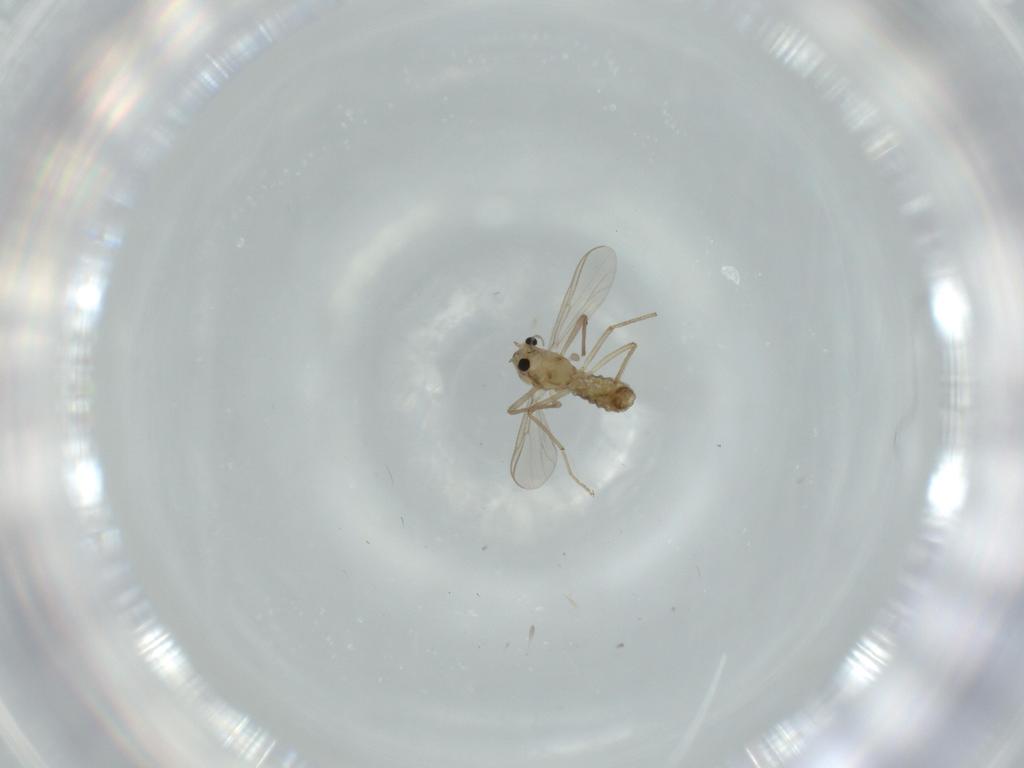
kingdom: Animalia
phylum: Arthropoda
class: Insecta
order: Diptera
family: Chironomidae
